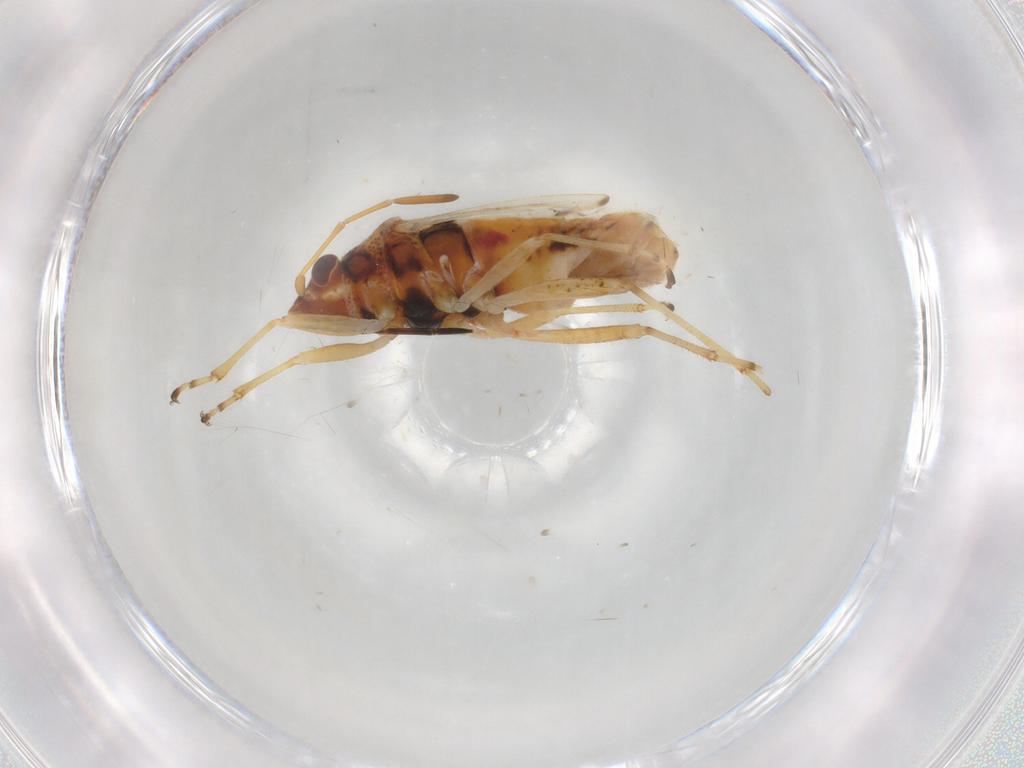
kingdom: Animalia
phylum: Arthropoda
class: Insecta
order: Hemiptera
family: Lygaeidae
